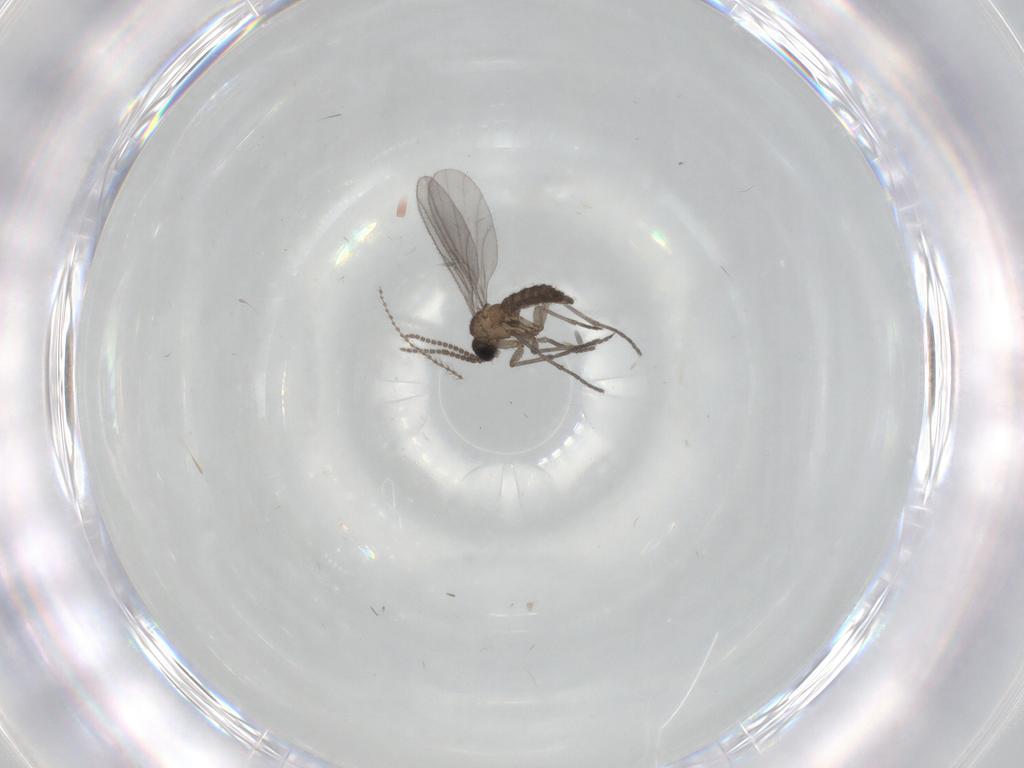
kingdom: Animalia
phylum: Arthropoda
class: Insecta
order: Diptera
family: Sciaridae
